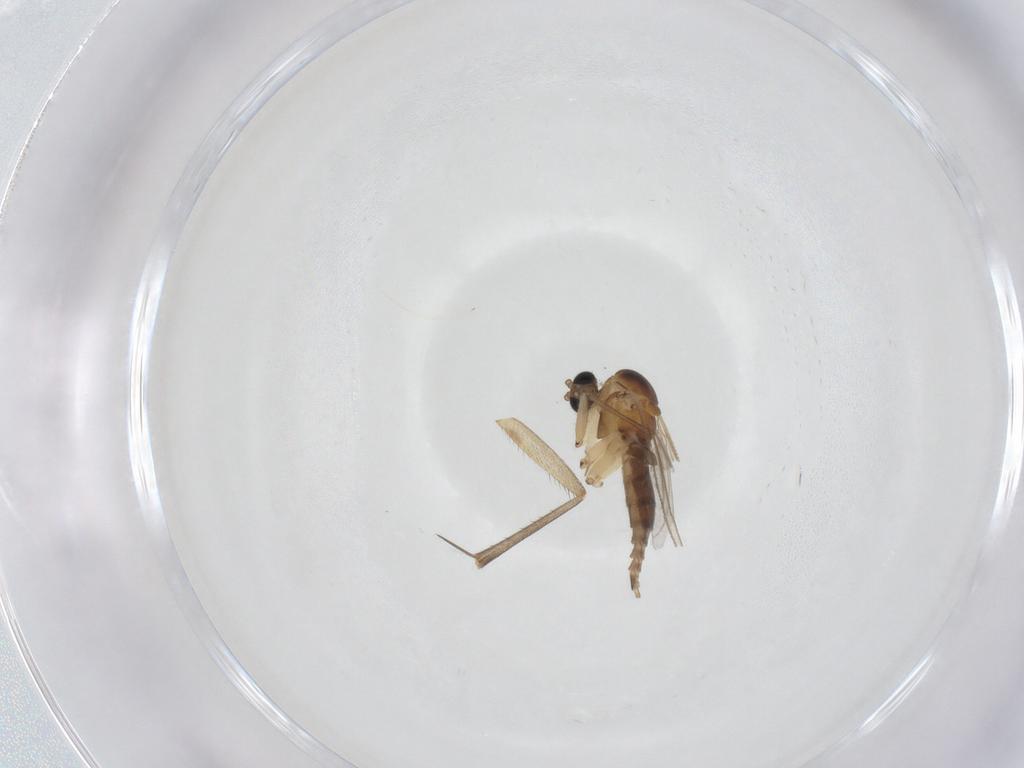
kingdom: Animalia
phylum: Arthropoda
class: Insecta
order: Diptera
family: Sciaridae
